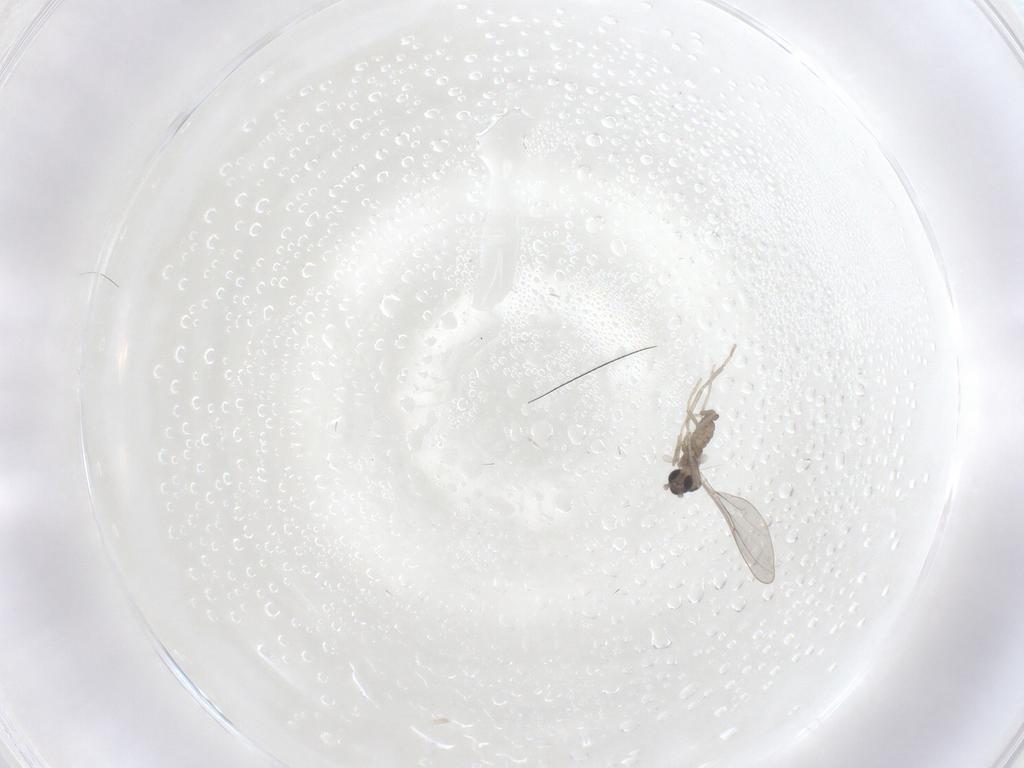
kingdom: Animalia
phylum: Arthropoda
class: Insecta
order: Diptera
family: Cecidomyiidae
